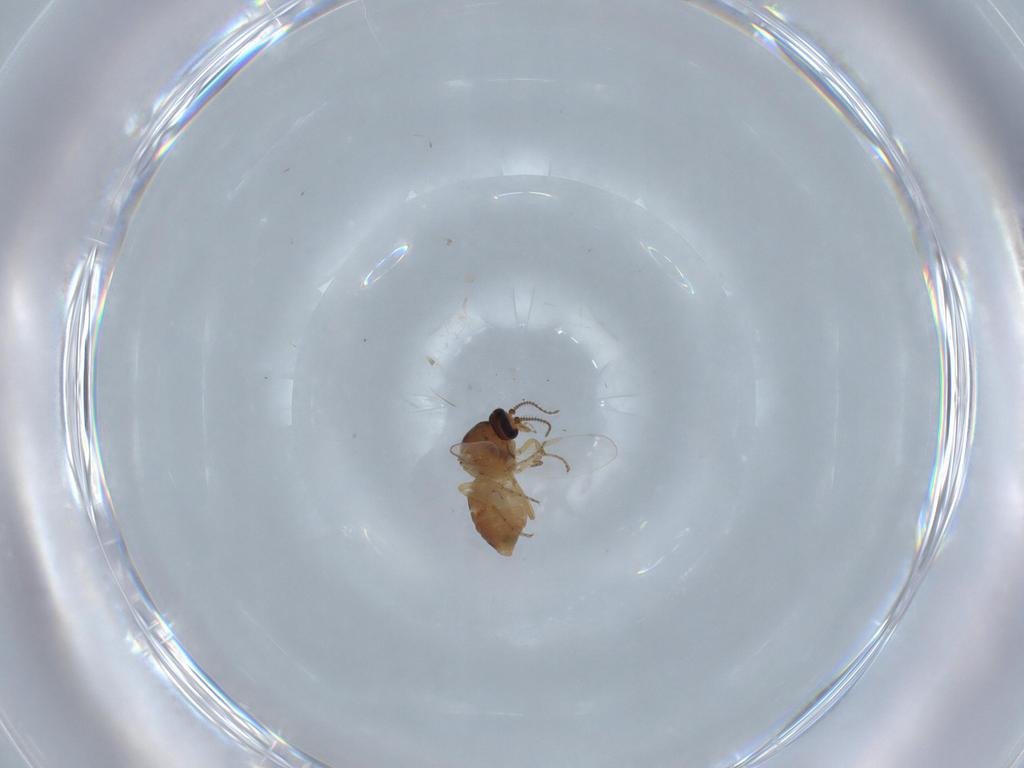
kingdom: Animalia
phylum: Arthropoda
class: Insecta
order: Diptera
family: Ceratopogonidae
